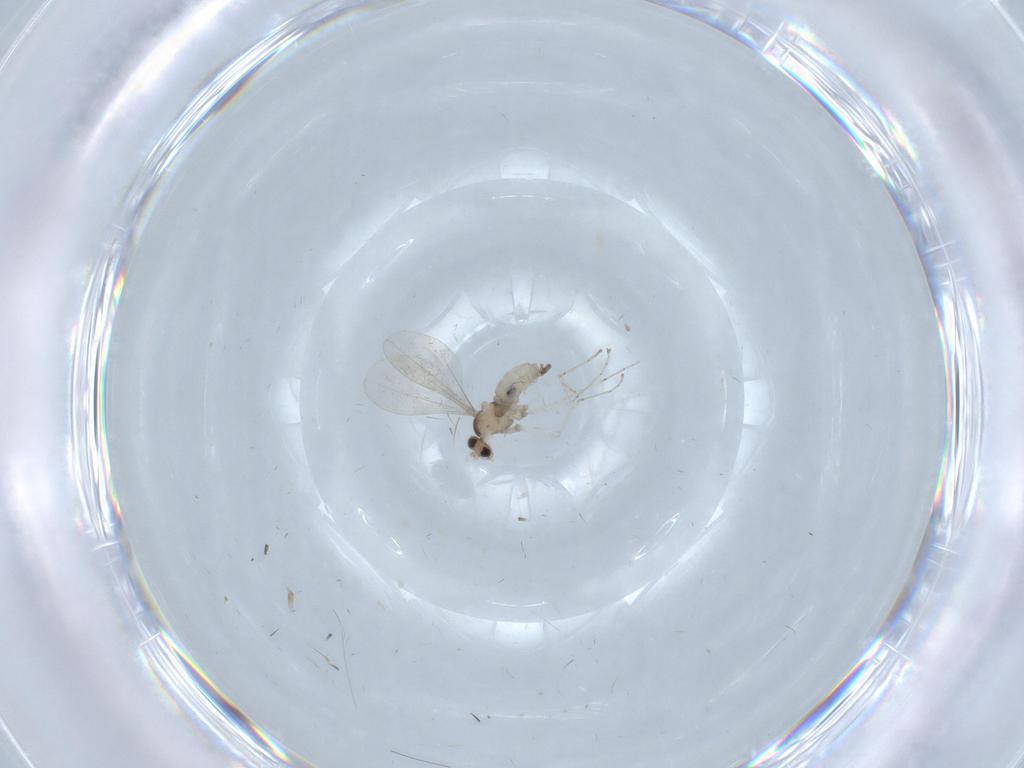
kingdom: Animalia
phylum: Arthropoda
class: Insecta
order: Diptera
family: Cecidomyiidae
